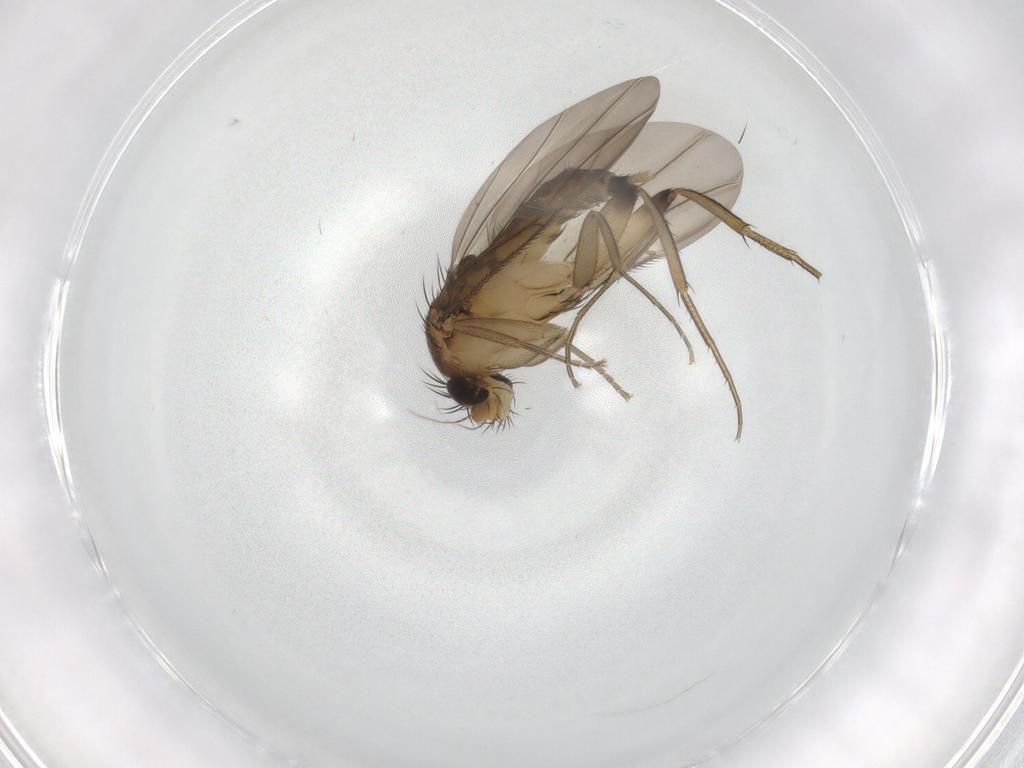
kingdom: Animalia
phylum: Arthropoda
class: Insecta
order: Diptera
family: Phoridae
